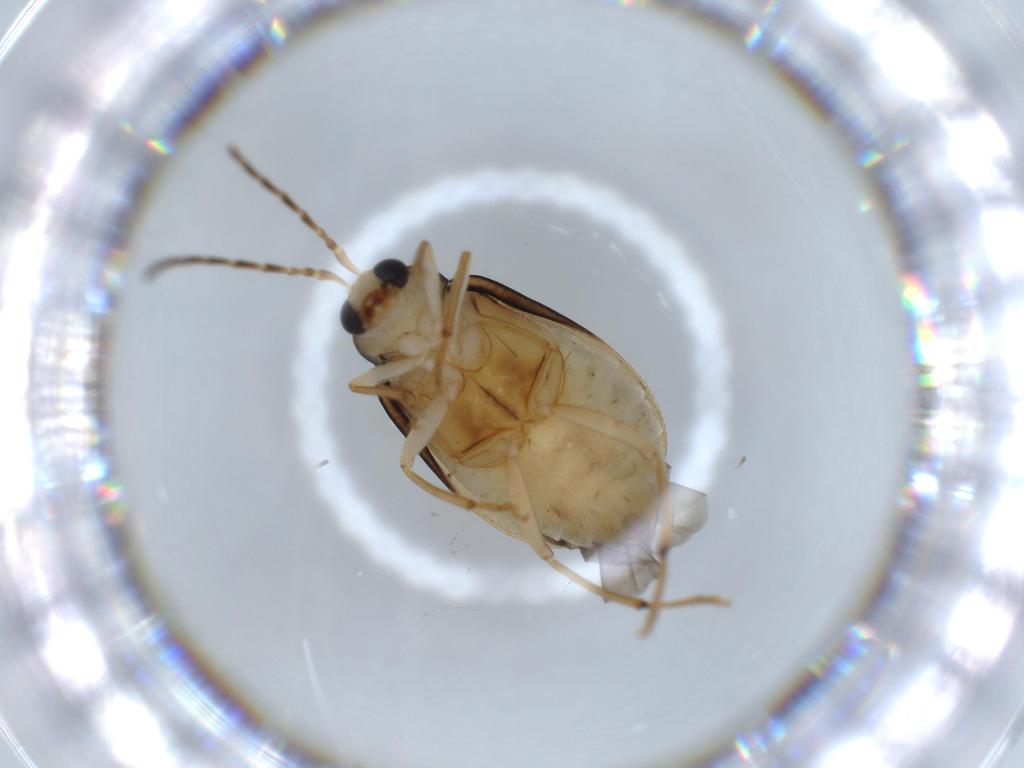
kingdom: Animalia
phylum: Arthropoda
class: Insecta
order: Coleoptera
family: Chrysomelidae
